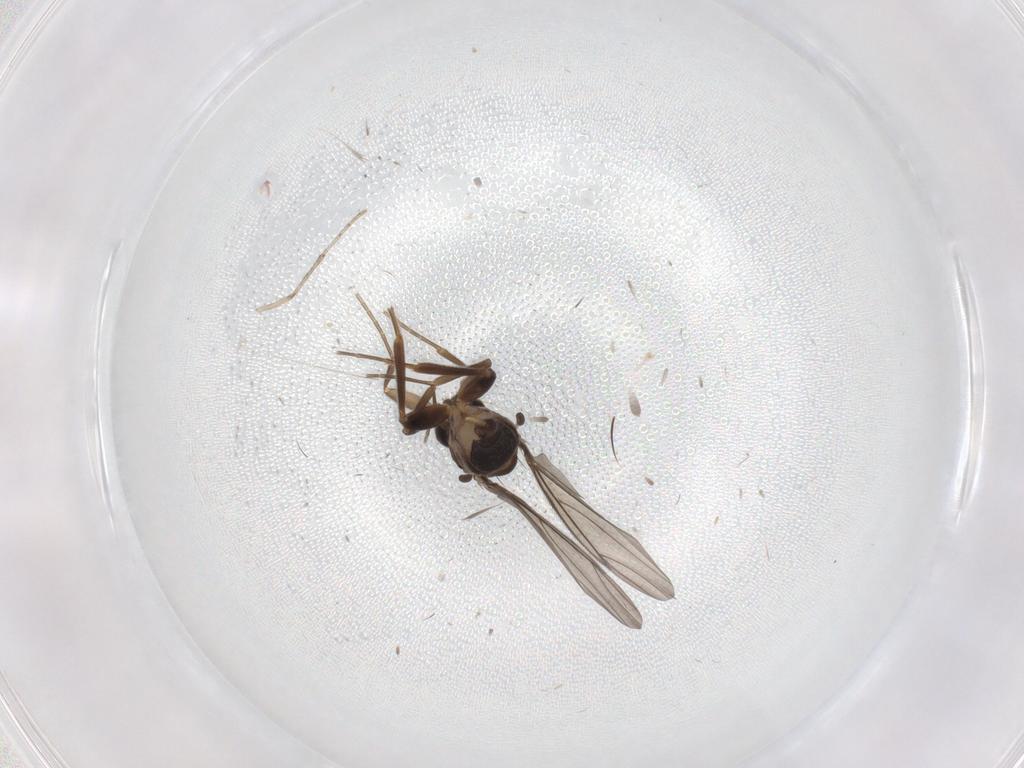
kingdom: Animalia
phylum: Arthropoda
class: Insecta
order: Diptera
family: Cecidomyiidae
